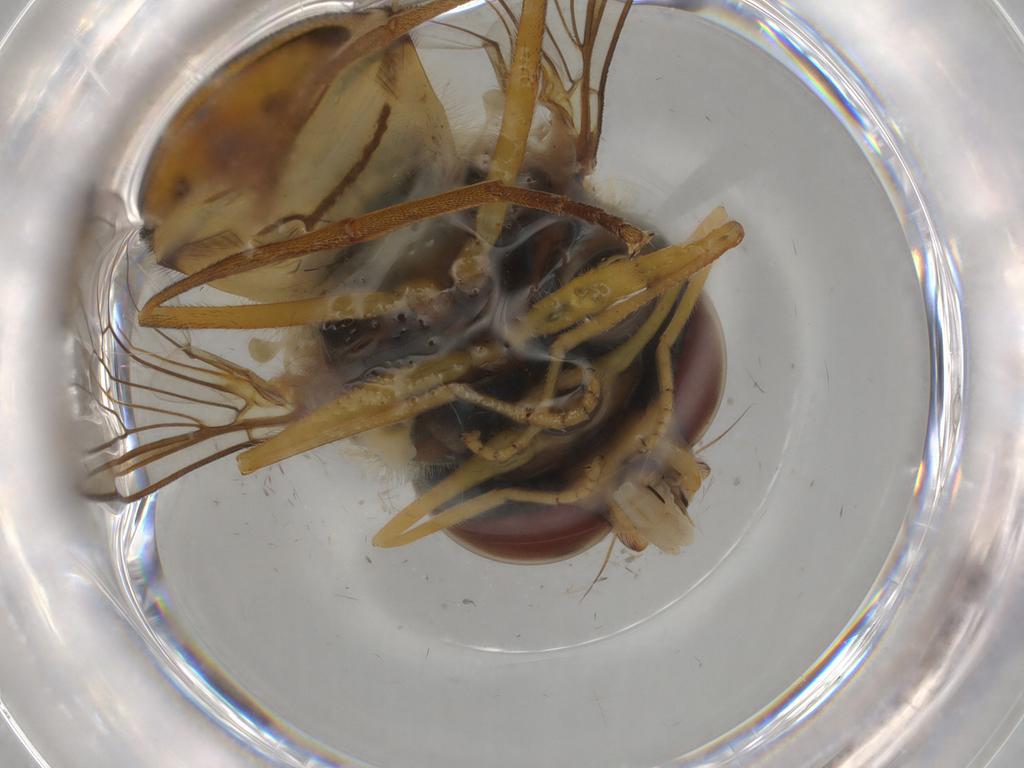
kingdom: Animalia
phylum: Arthropoda
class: Insecta
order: Diptera
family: Syrphidae
